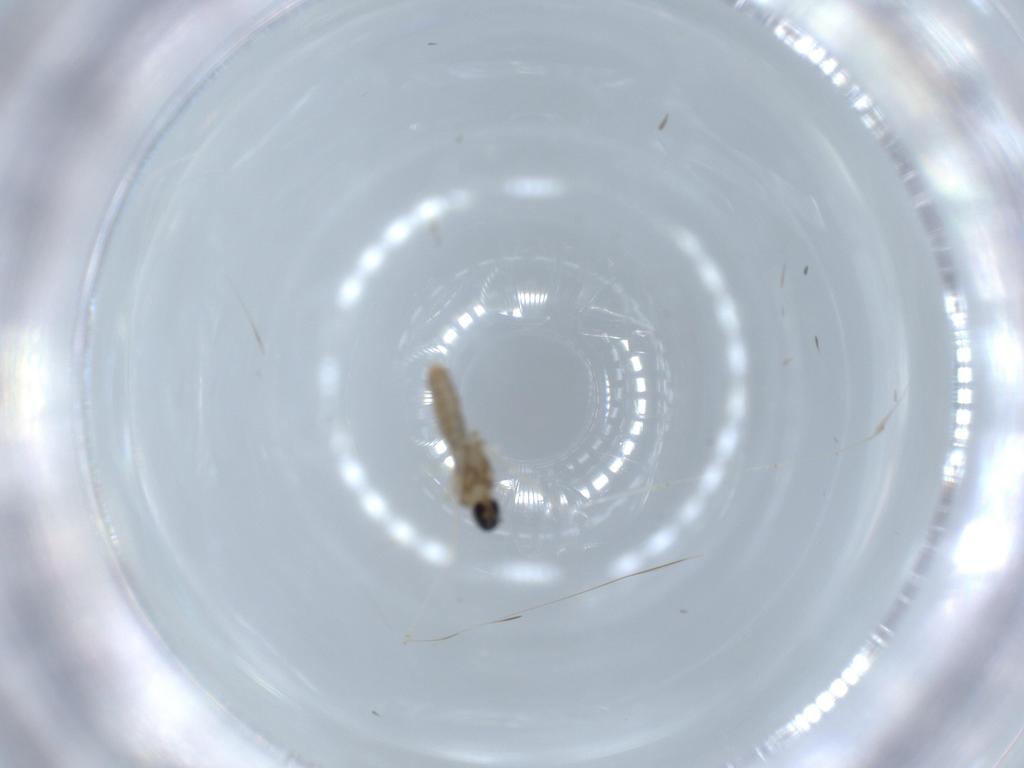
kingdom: Animalia
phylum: Arthropoda
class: Insecta
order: Diptera
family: Cecidomyiidae
